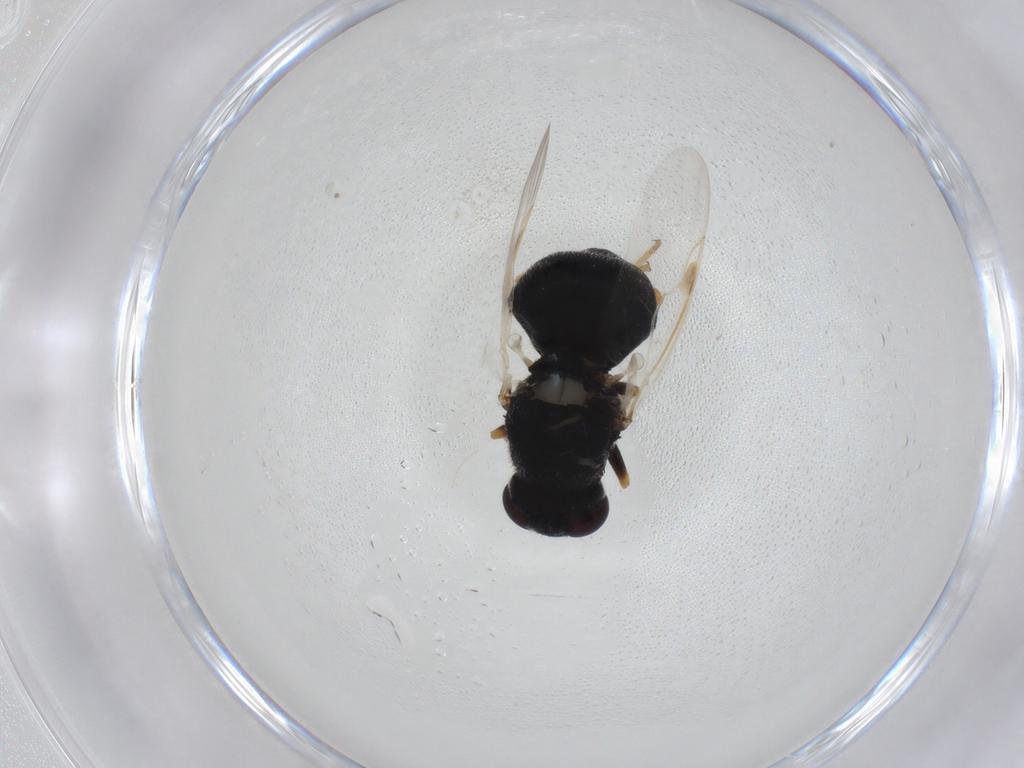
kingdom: Animalia
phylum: Arthropoda
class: Insecta
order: Diptera
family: Stratiomyidae
